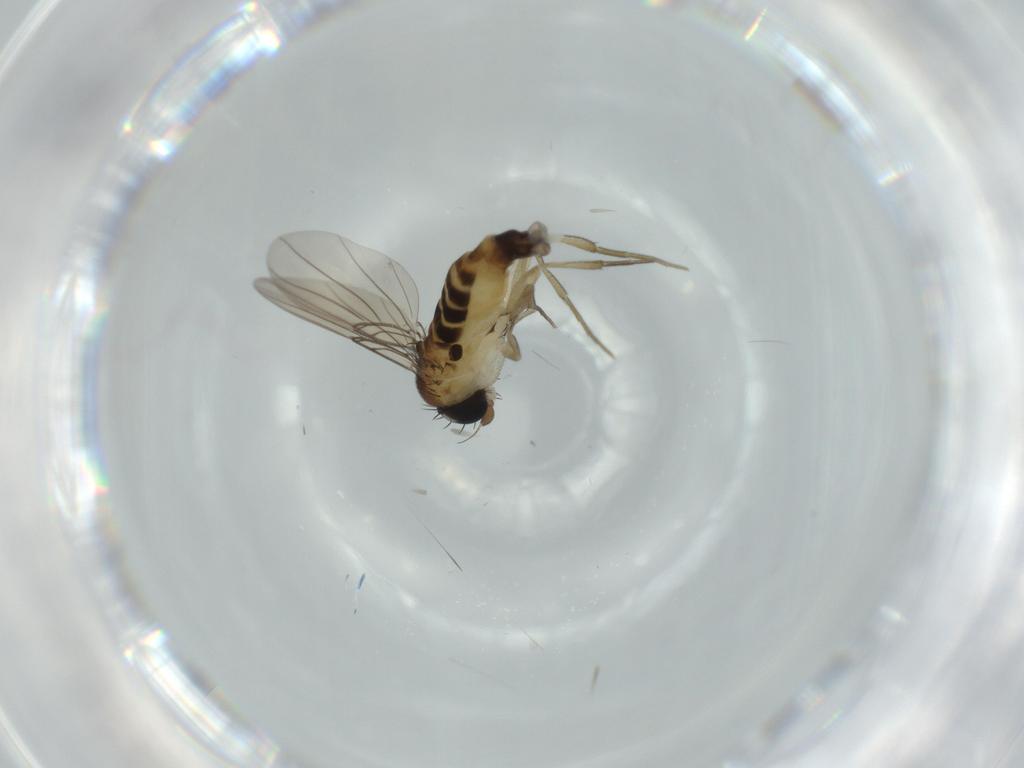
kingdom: Animalia
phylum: Arthropoda
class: Insecta
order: Diptera
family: Phoridae
